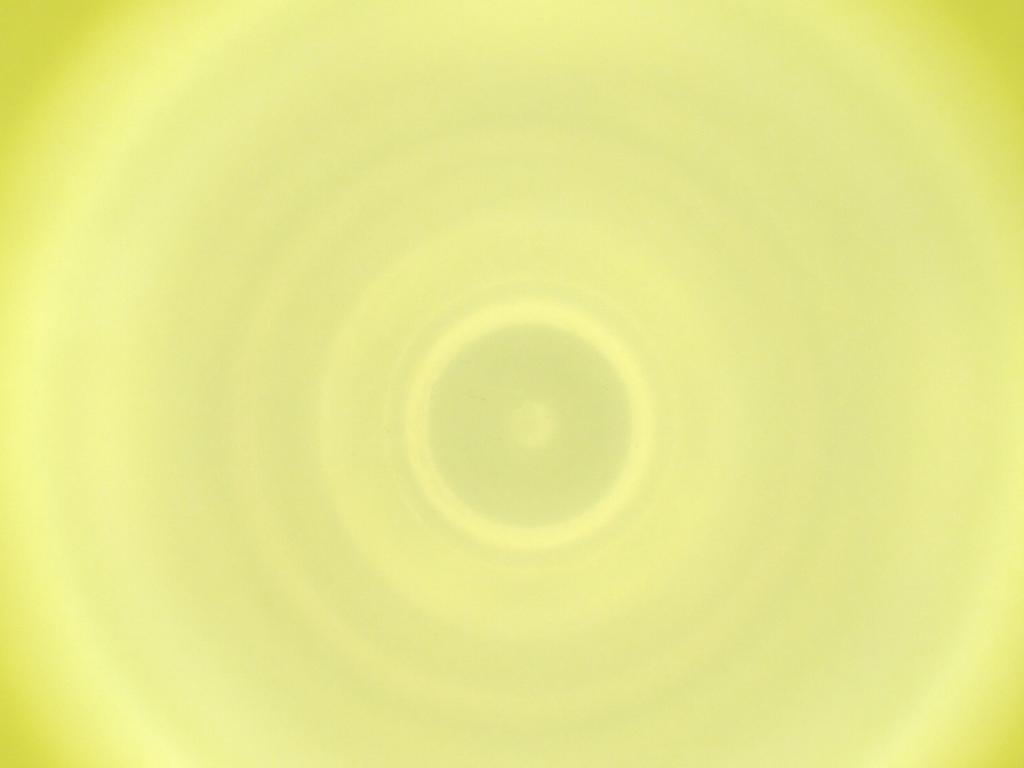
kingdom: Animalia
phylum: Arthropoda
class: Insecta
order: Diptera
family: Cecidomyiidae
